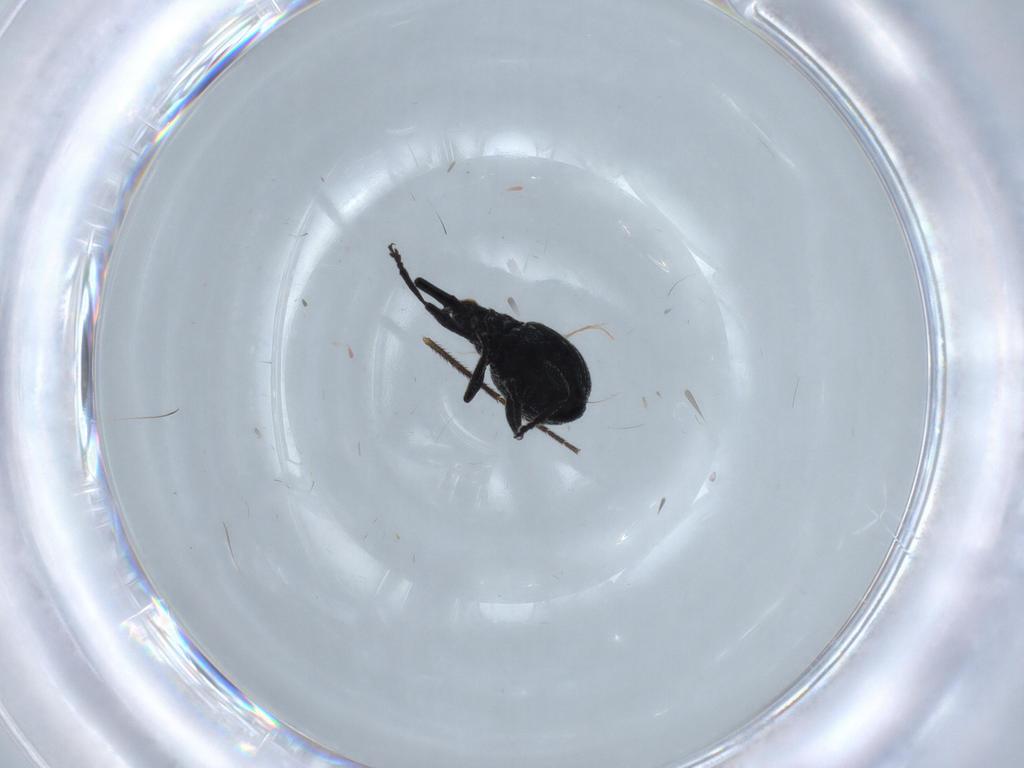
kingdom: Animalia
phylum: Arthropoda
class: Insecta
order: Coleoptera
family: Brentidae
